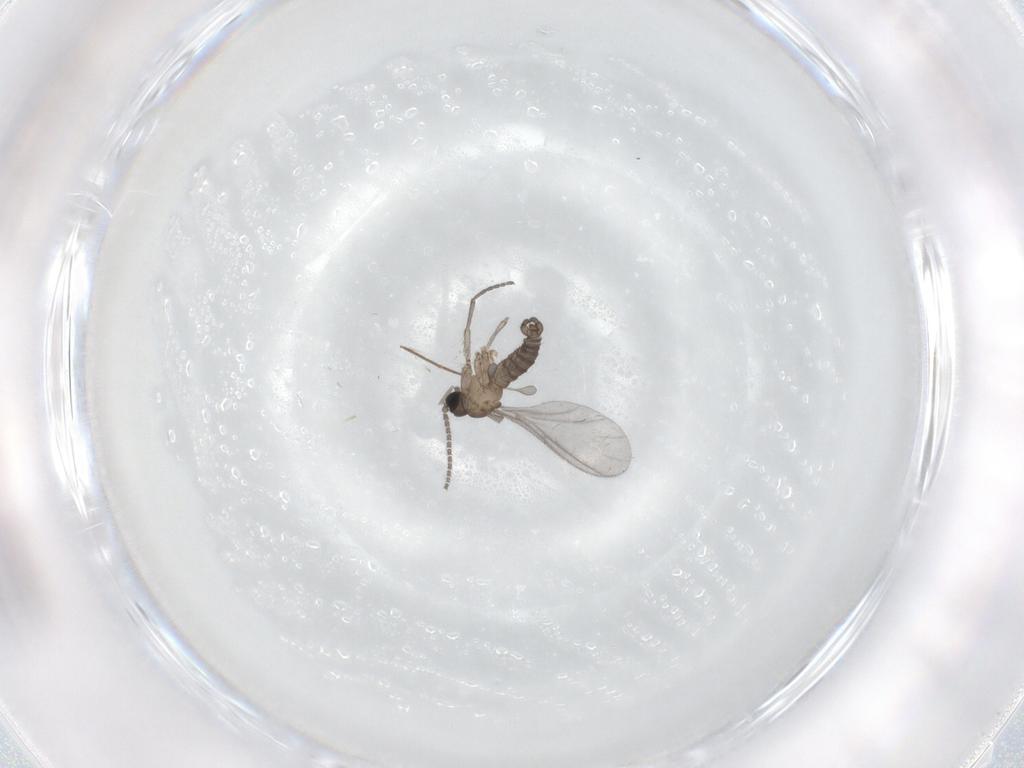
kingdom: Animalia
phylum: Arthropoda
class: Insecta
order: Diptera
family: Sciaridae
